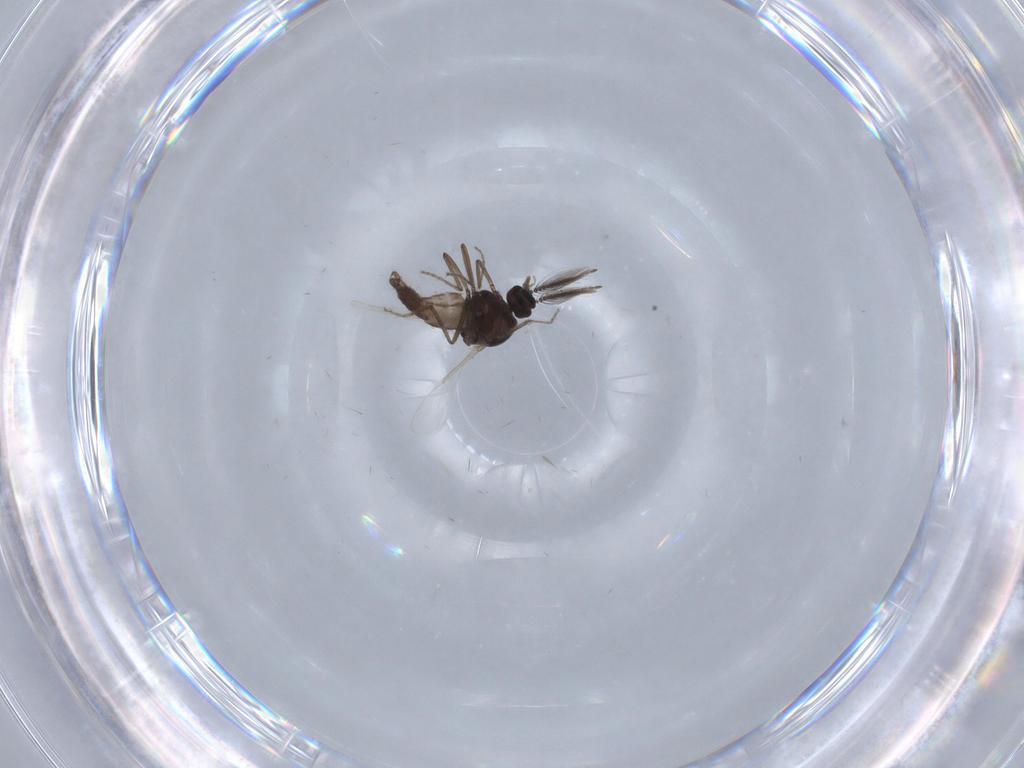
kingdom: Animalia
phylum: Arthropoda
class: Insecta
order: Diptera
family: Ceratopogonidae
